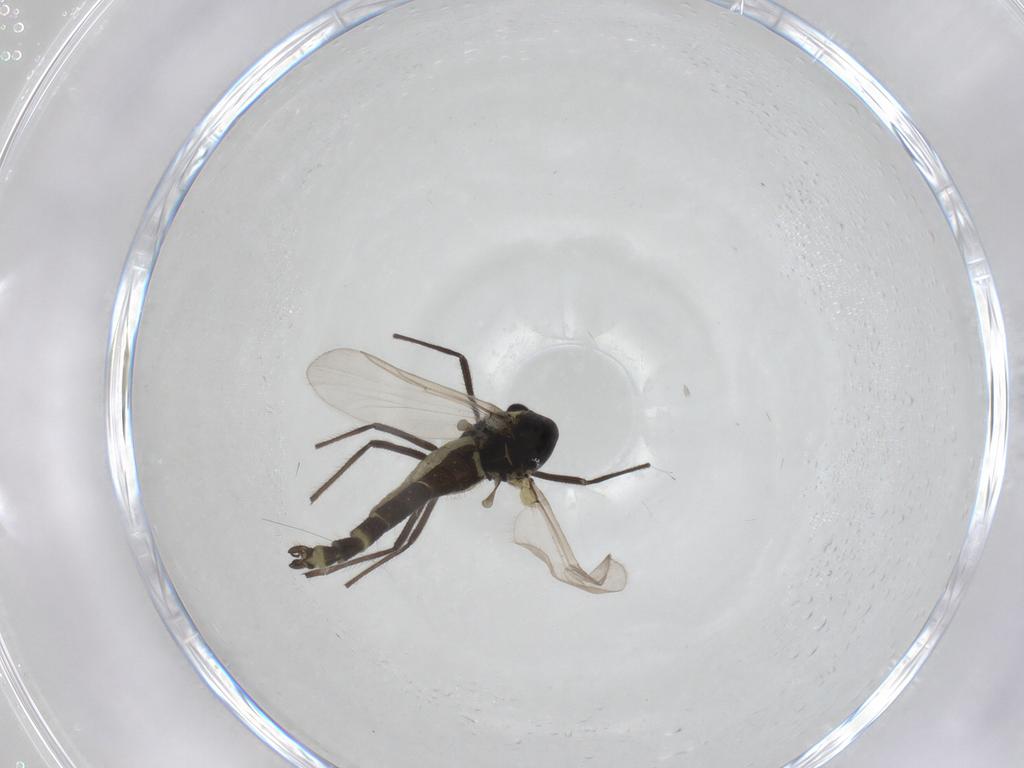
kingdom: Animalia
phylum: Arthropoda
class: Insecta
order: Diptera
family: Chironomidae
